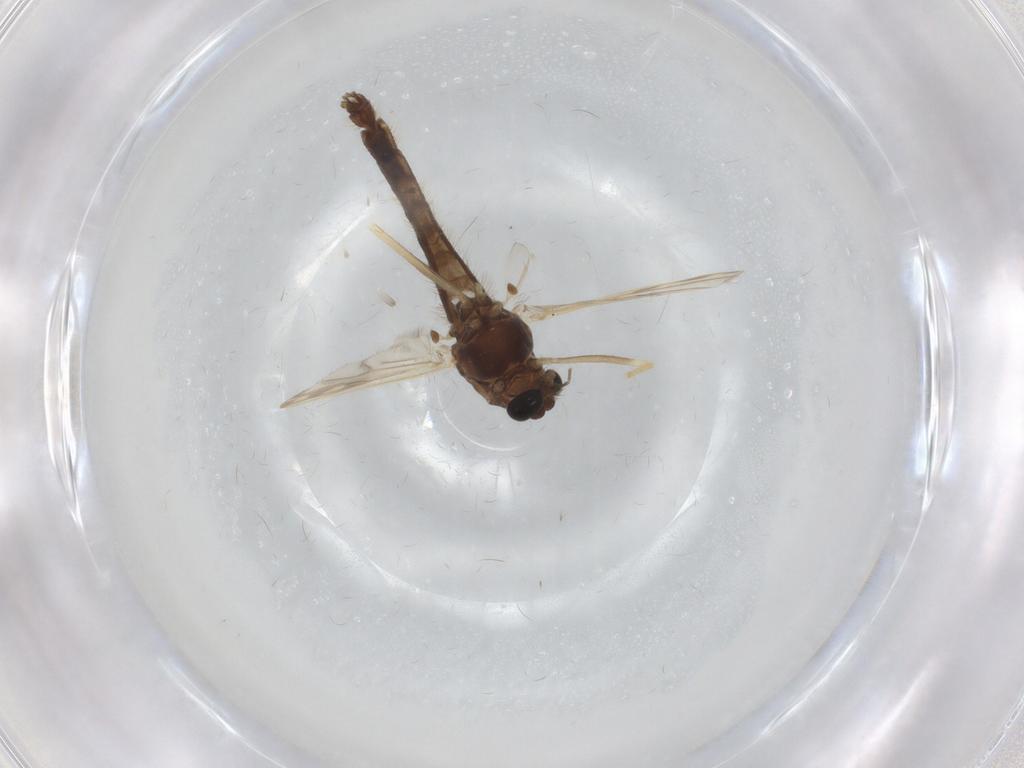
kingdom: Animalia
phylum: Arthropoda
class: Insecta
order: Diptera
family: Chironomidae
